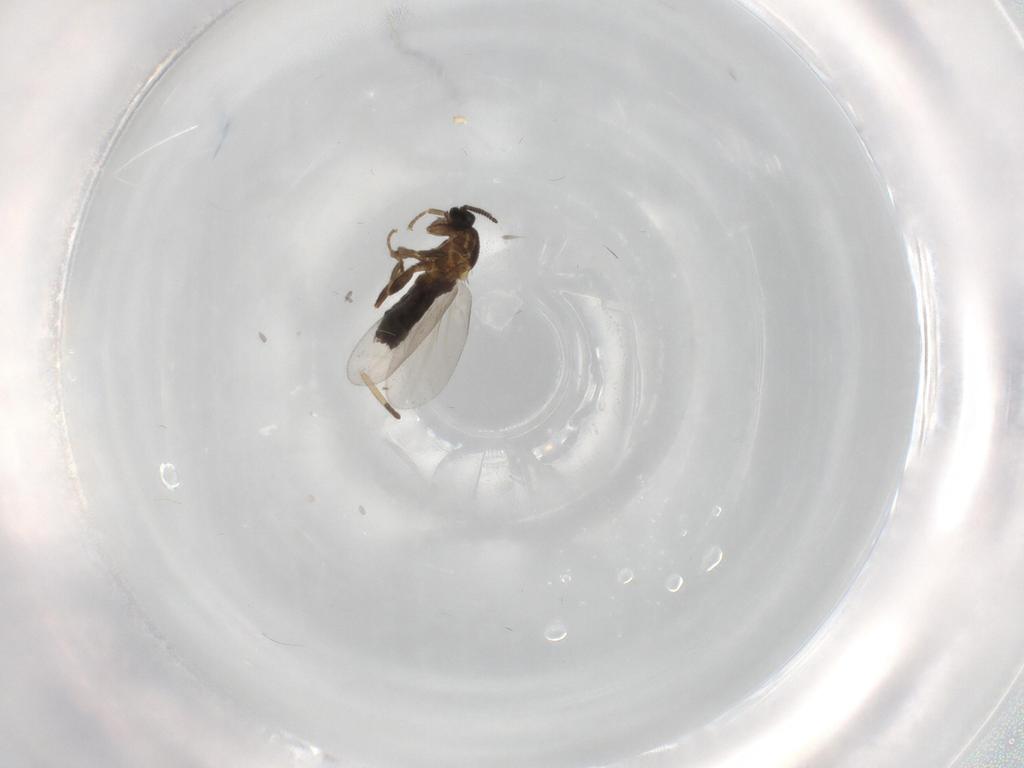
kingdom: Animalia
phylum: Arthropoda
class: Insecta
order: Diptera
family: Scatopsidae
